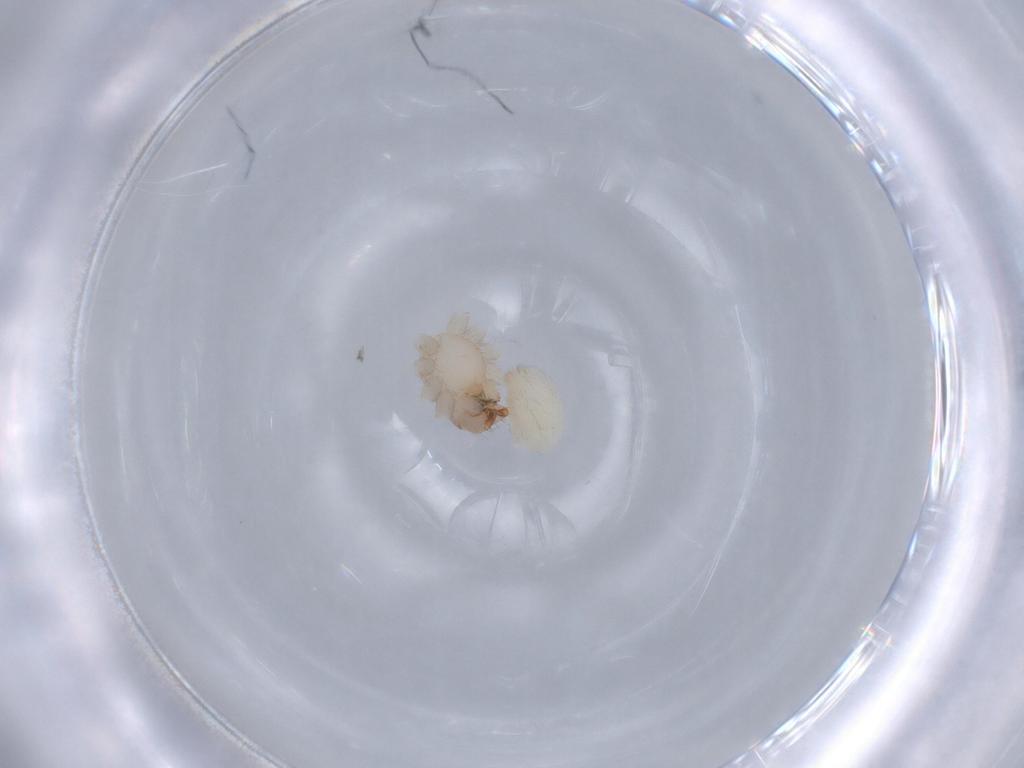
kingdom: Animalia
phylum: Arthropoda
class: Arachnida
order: Araneae
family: Corinnidae
